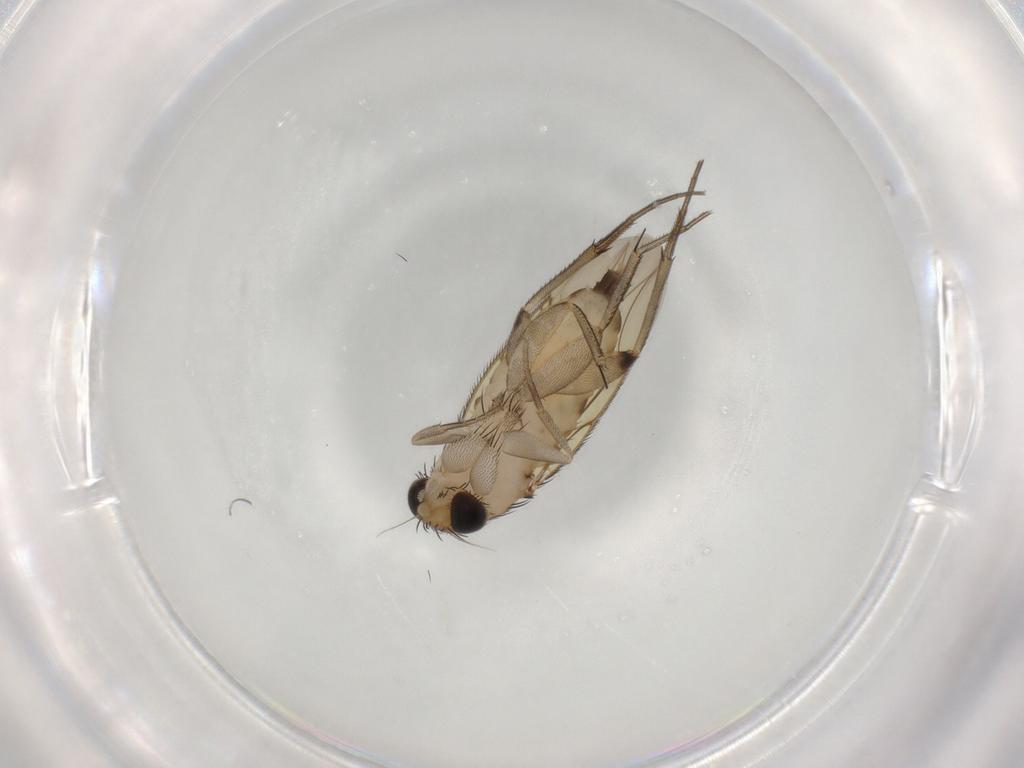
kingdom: Animalia
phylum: Arthropoda
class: Insecta
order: Diptera
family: Phoridae
